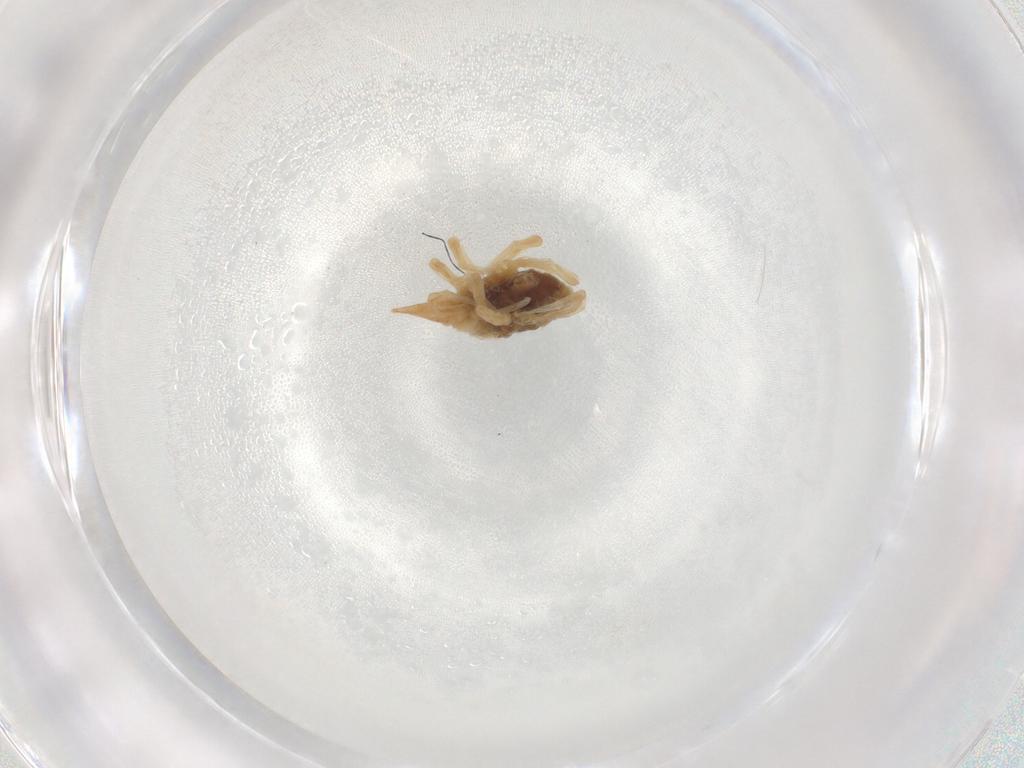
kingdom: Animalia
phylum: Arthropoda
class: Arachnida
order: Trombidiformes
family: Bdellidae
